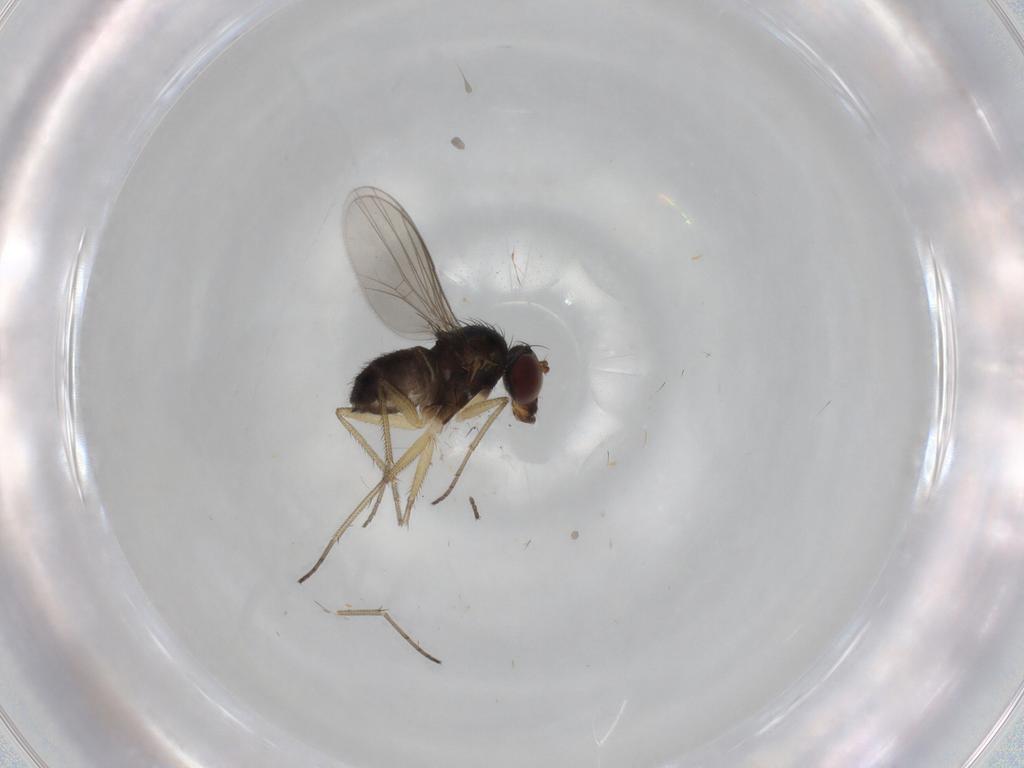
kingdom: Animalia
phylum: Arthropoda
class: Insecta
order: Diptera
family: Dolichopodidae
